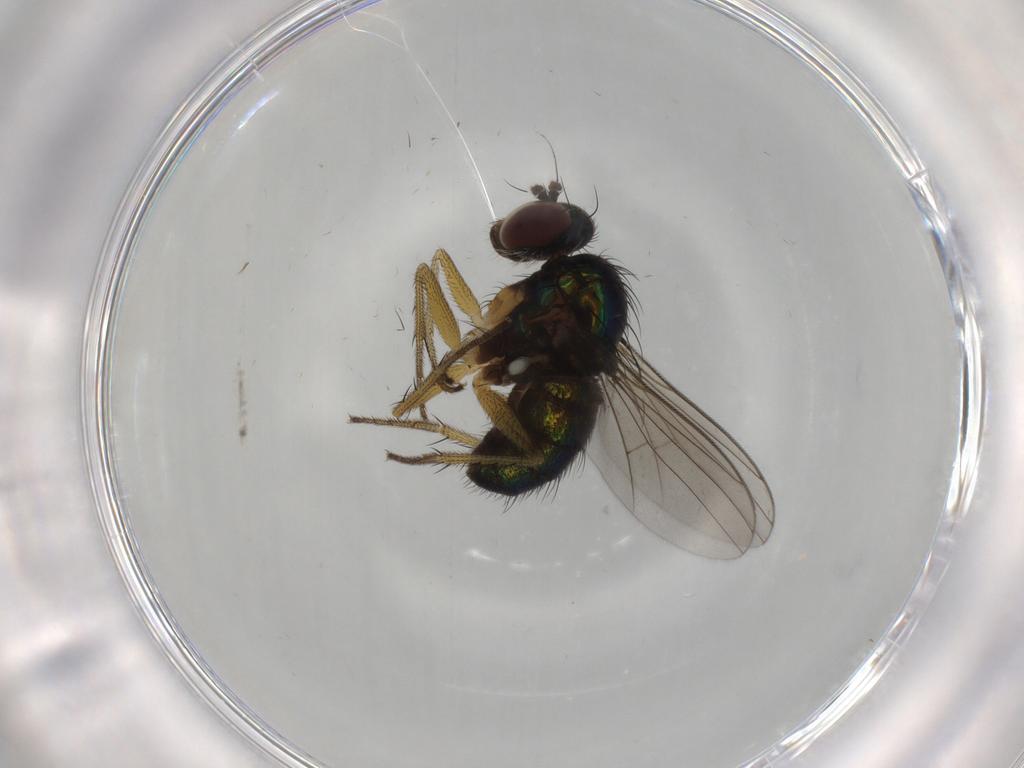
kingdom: Animalia
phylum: Arthropoda
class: Insecta
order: Diptera
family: Dolichopodidae
